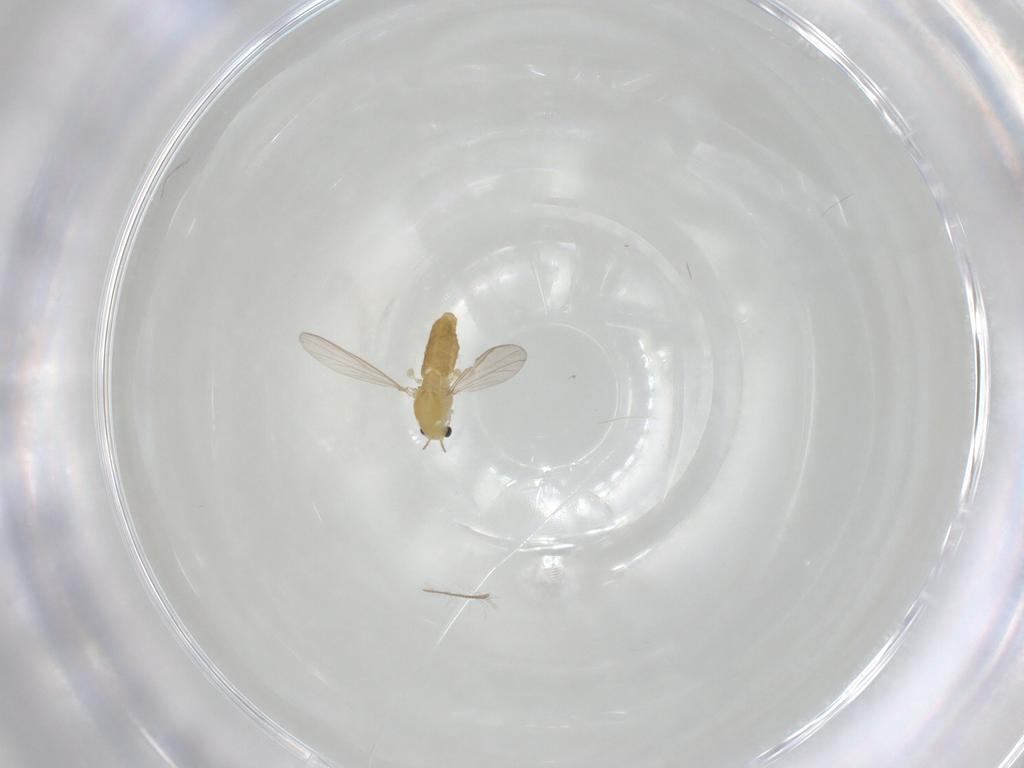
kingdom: Animalia
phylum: Arthropoda
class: Insecta
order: Diptera
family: Chironomidae
